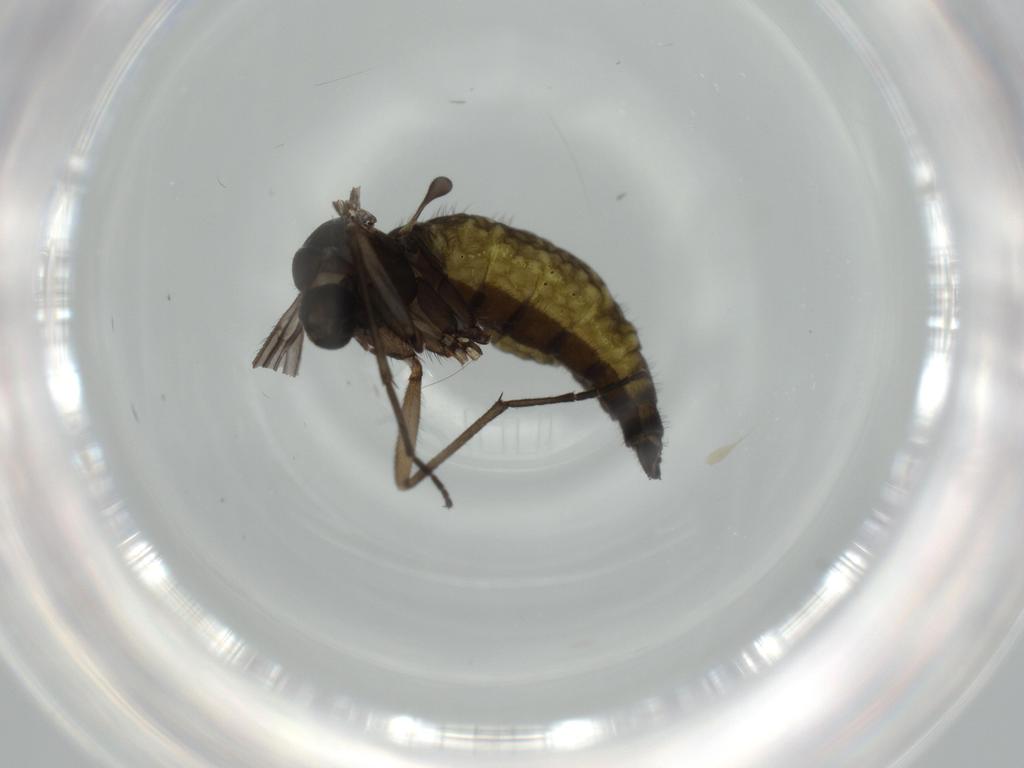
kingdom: Animalia
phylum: Arthropoda
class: Insecta
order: Diptera
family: Sciaridae
